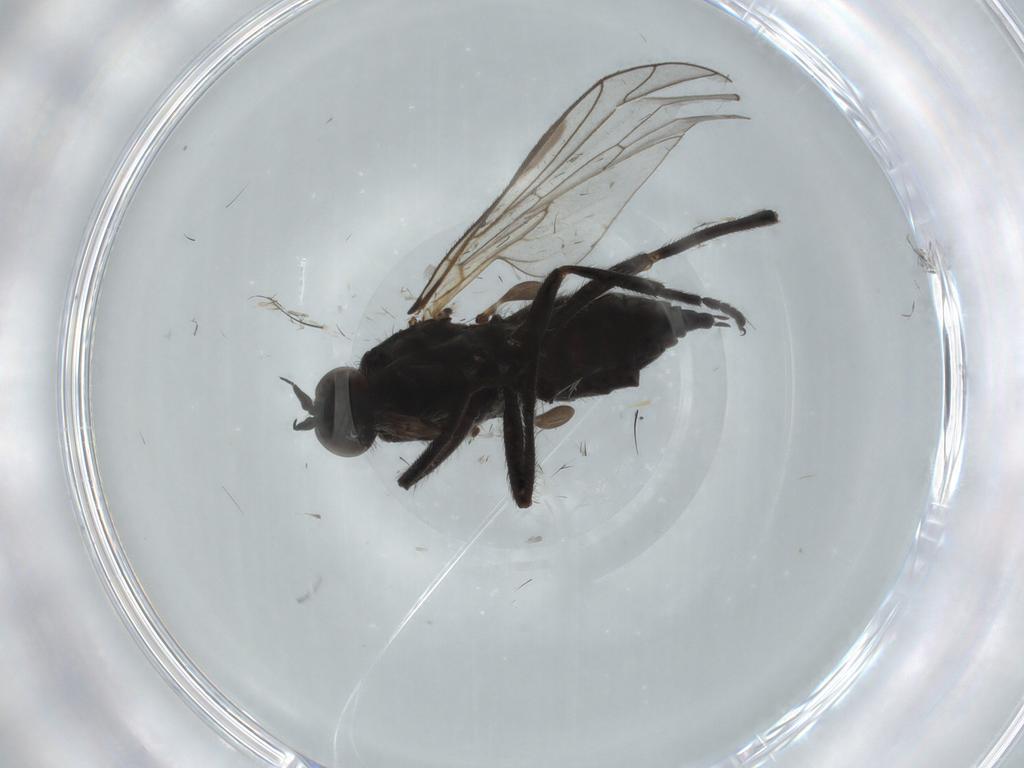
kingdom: Animalia
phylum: Arthropoda
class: Insecta
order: Diptera
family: Empididae
